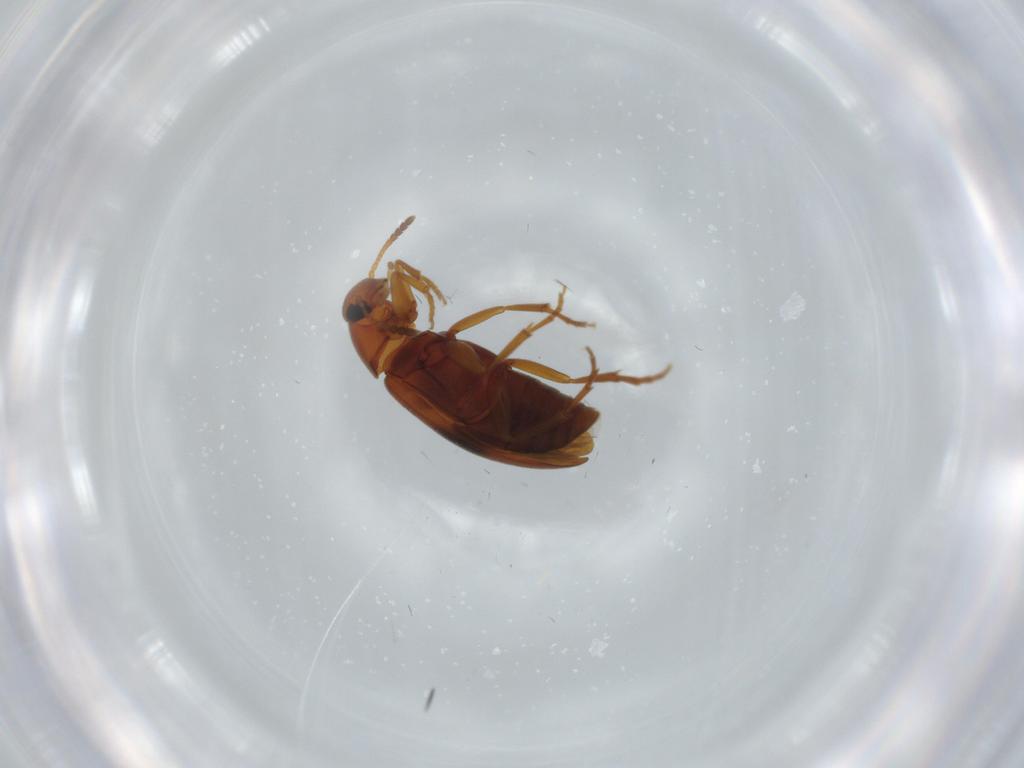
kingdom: Animalia
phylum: Arthropoda
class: Insecta
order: Coleoptera
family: Scraptiidae
